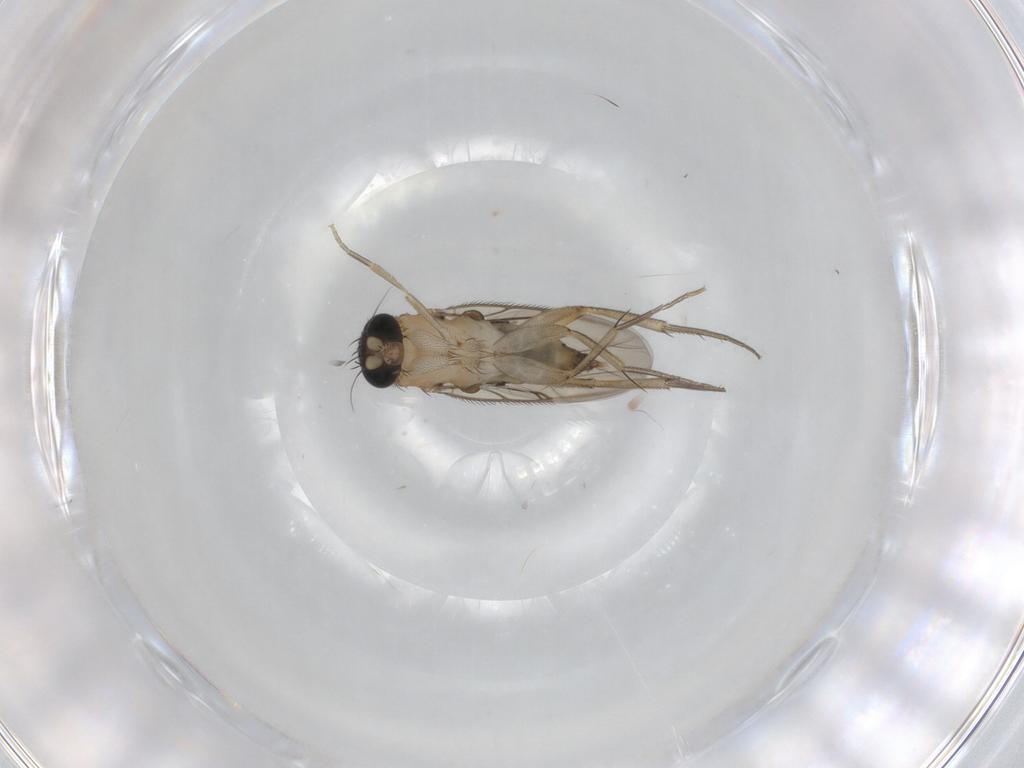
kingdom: Animalia
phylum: Arthropoda
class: Insecta
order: Diptera
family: Phoridae
